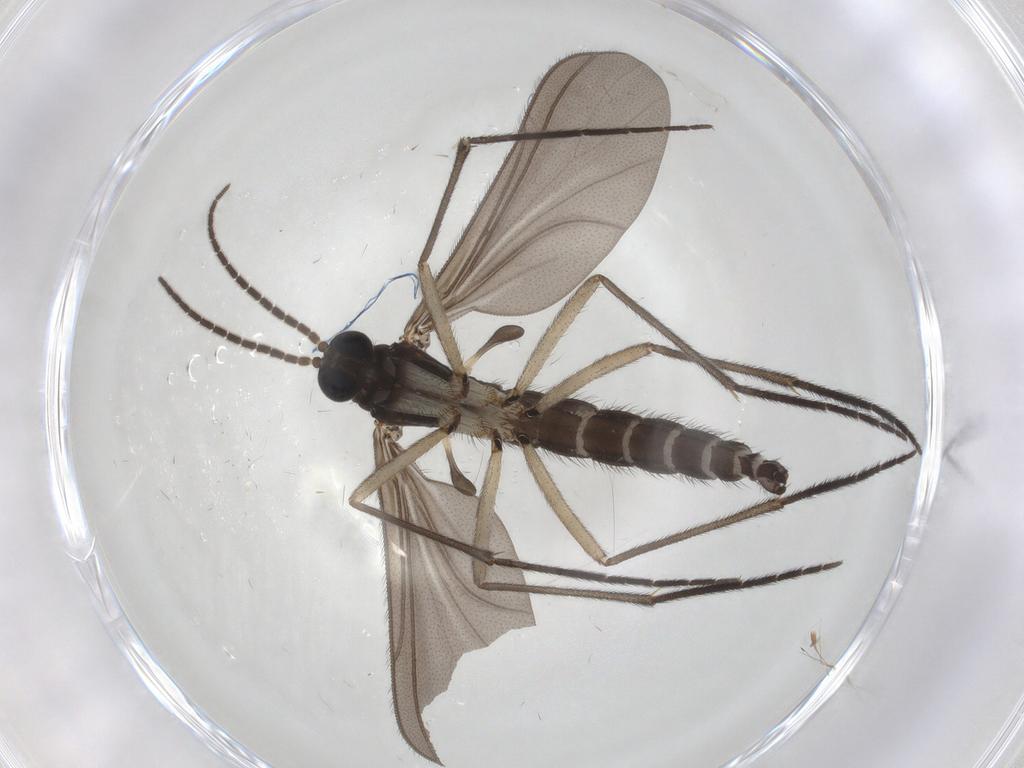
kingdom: Animalia
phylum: Arthropoda
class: Insecta
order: Diptera
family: Sciaridae
